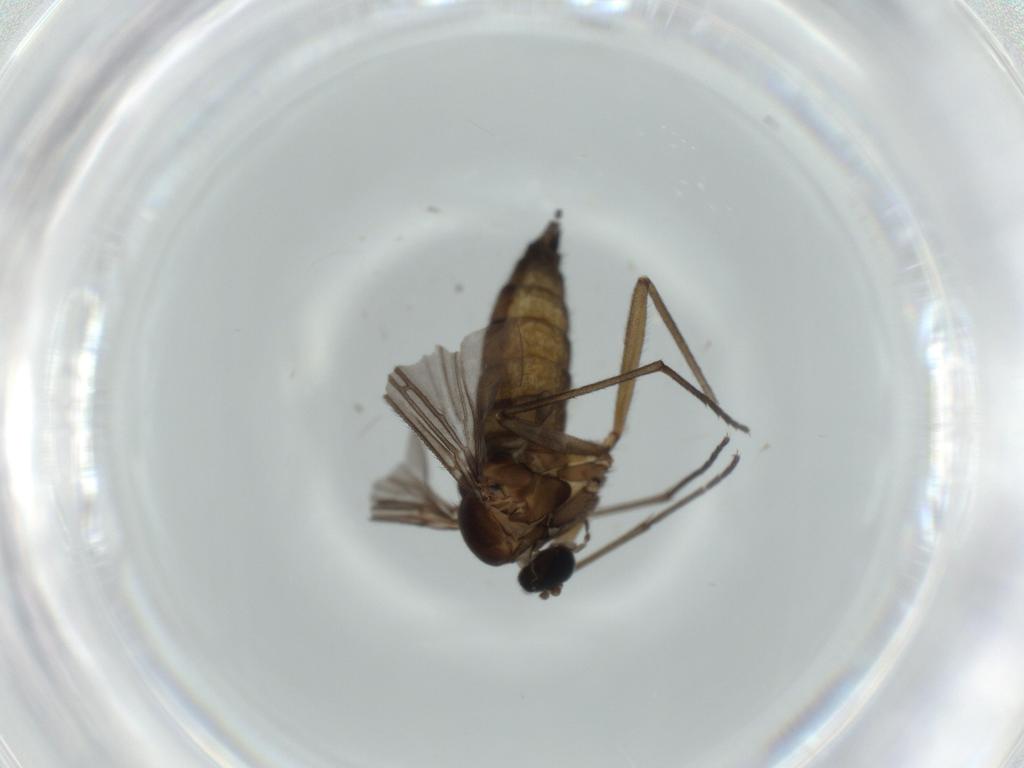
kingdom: Animalia
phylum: Arthropoda
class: Insecta
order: Diptera
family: Sciaridae
